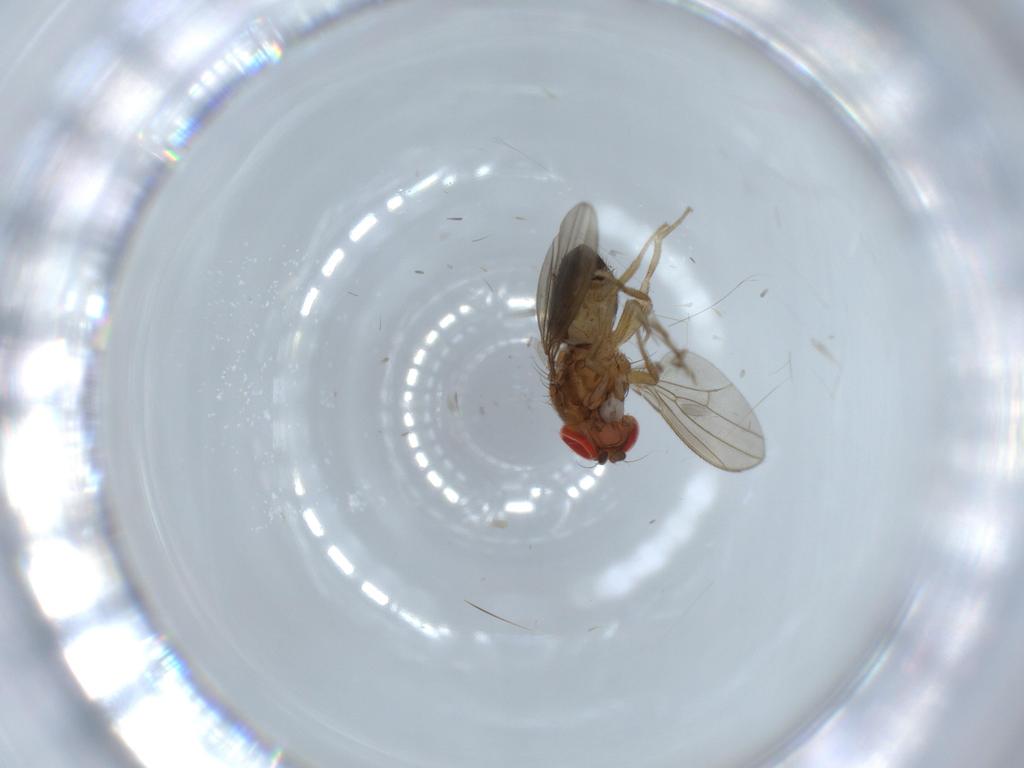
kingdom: Animalia
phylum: Arthropoda
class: Insecta
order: Diptera
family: Drosophilidae
